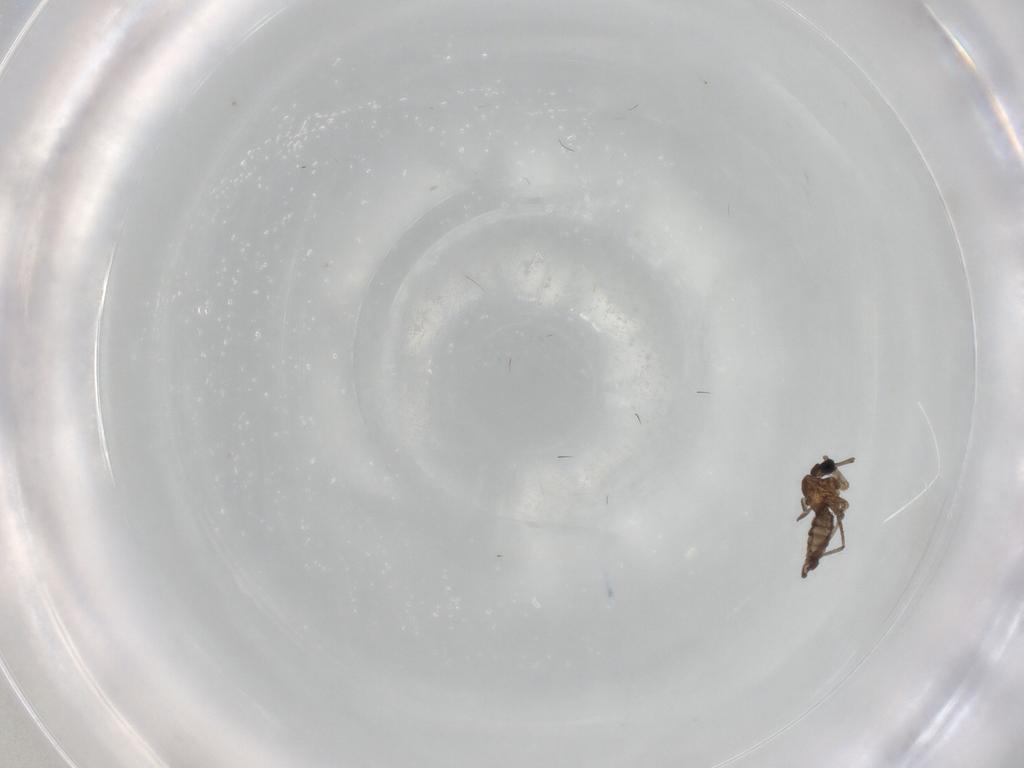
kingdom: Animalia
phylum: Arthropoda
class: Insecta
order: Diptera
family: Sciaridae
